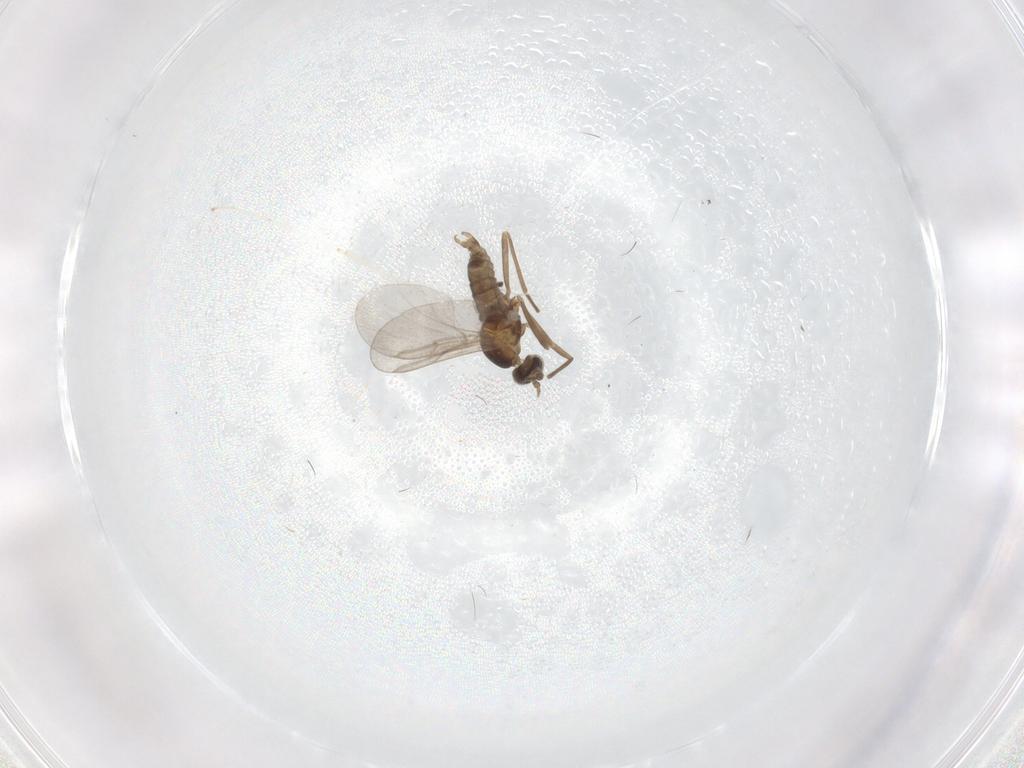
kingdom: Animalia
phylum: Arthropoda
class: Insecta
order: Diptera
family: Cecidomyiidae
